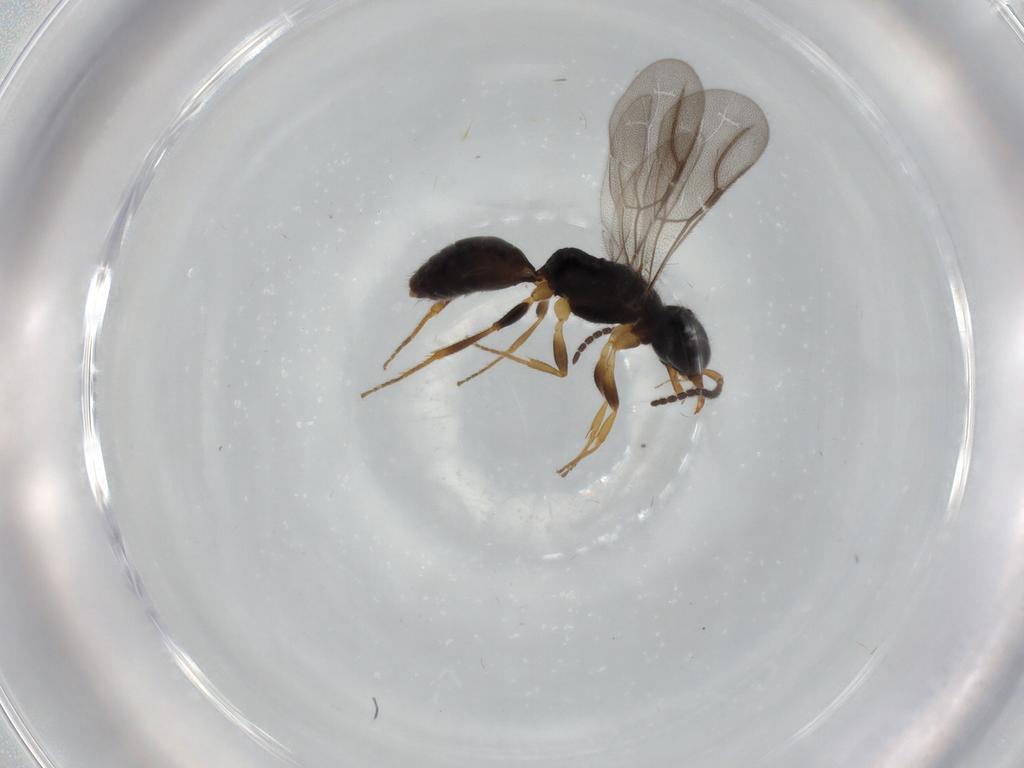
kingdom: Animalia
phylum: Arthropoda
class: Insecta
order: Hymenoptera
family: Bethylidae
